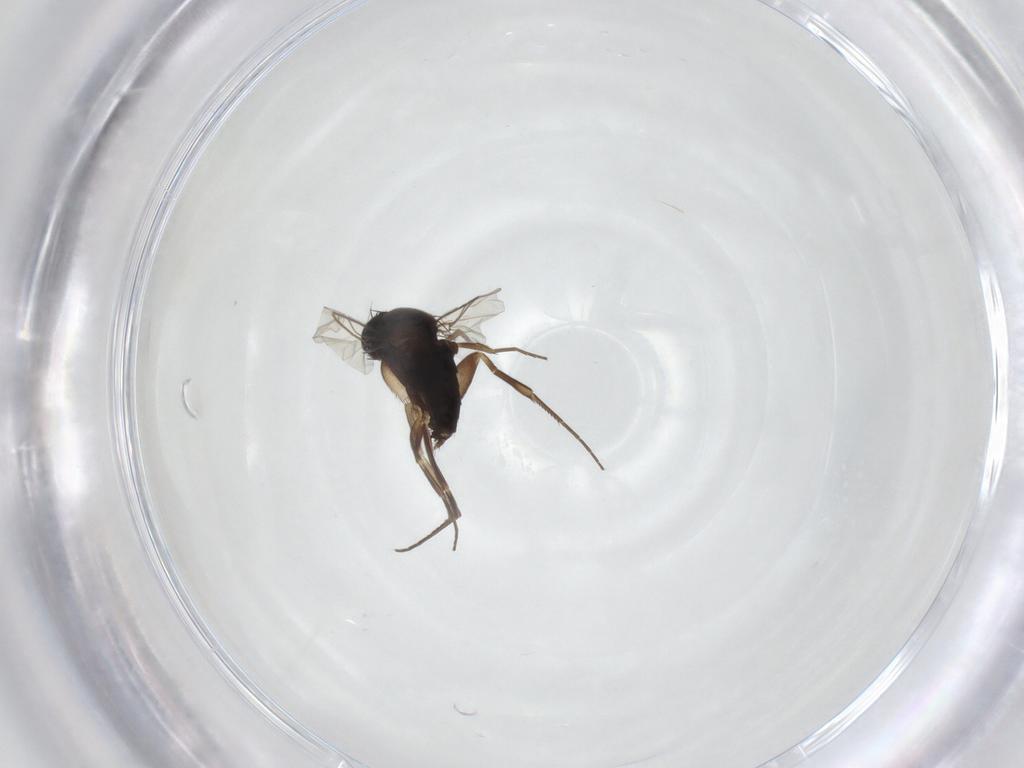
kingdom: Animalia
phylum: Arthropoda
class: Insecta
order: Diptera
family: Phoridae
